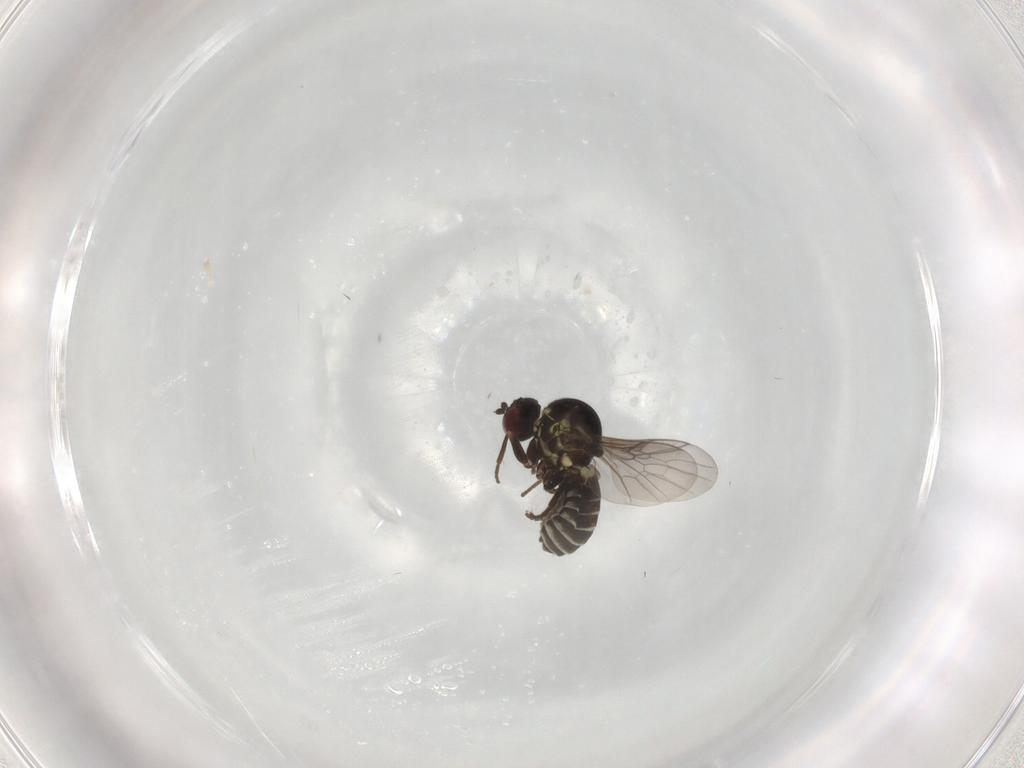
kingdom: Animalia
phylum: Arthropoda
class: Insecta
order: Diptera
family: Mythicomyiidae
